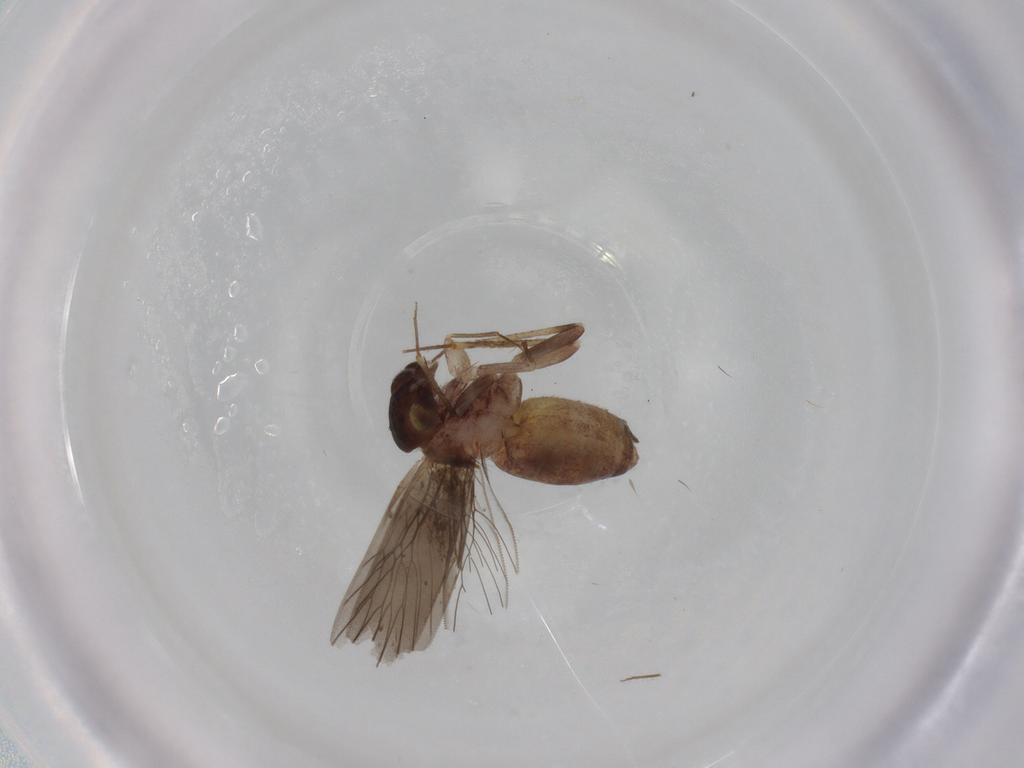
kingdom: Animalia
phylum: Arthropoda
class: Insecta
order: Psocodea
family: Lepidopsocidae
